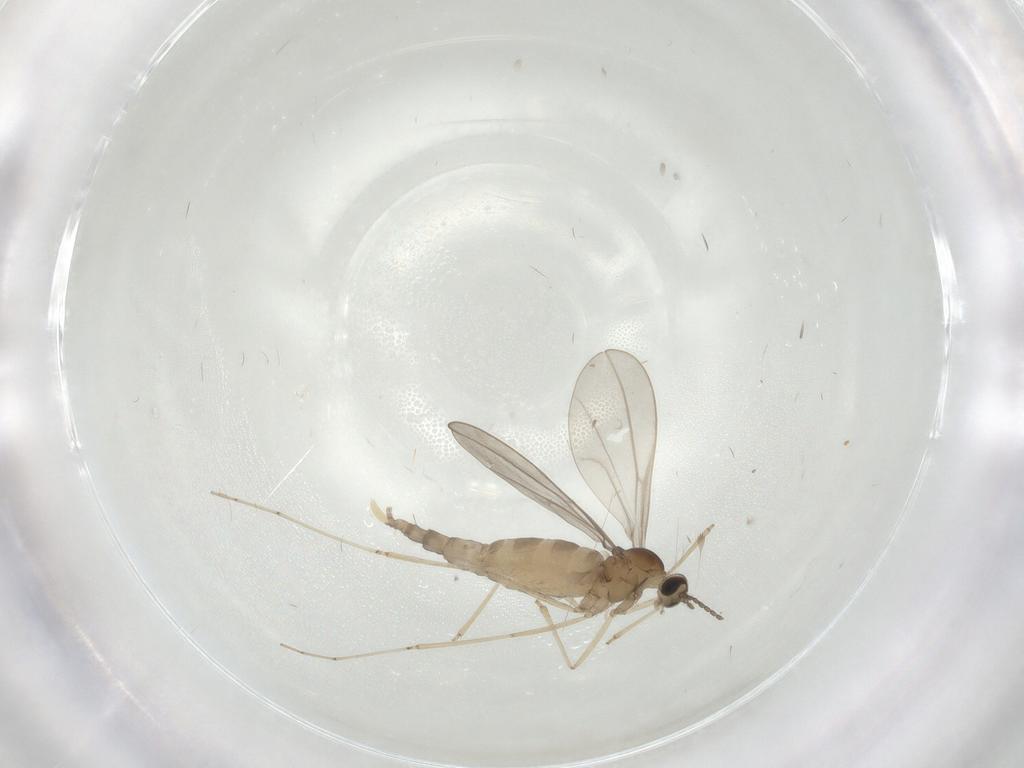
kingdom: Animalia
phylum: Arthropoda
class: Insecta
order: Diptera
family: Cecidomyiidae
